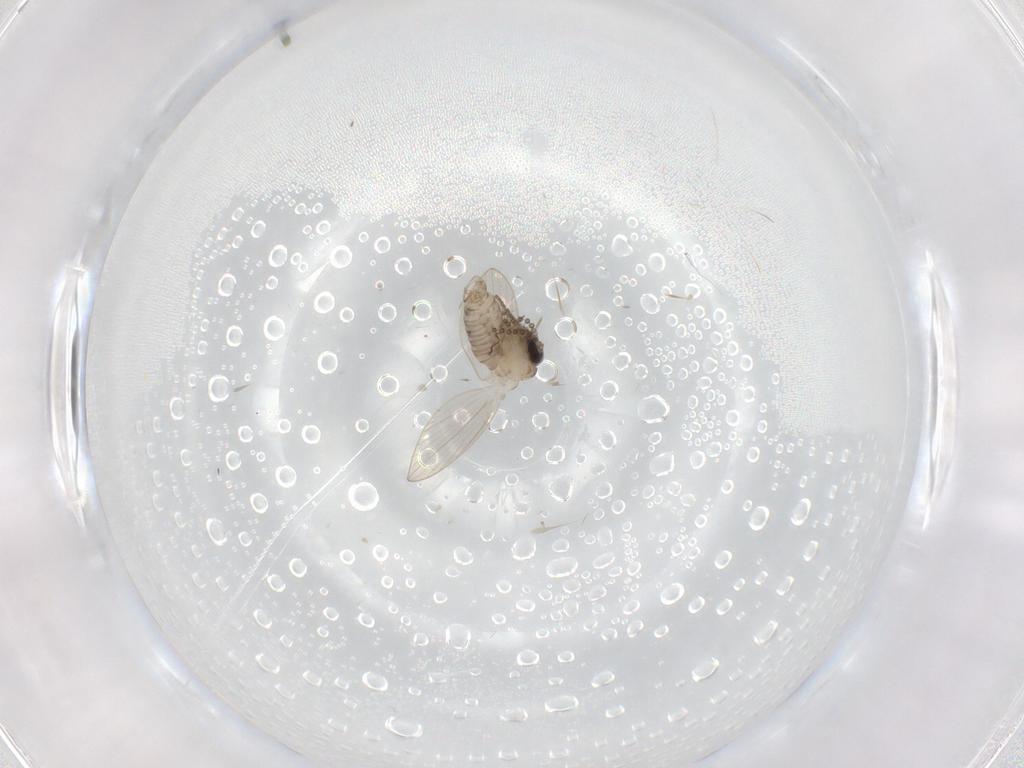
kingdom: Animalia
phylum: Arthropoda
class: Insecta
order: Diptera
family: Psychodidae
